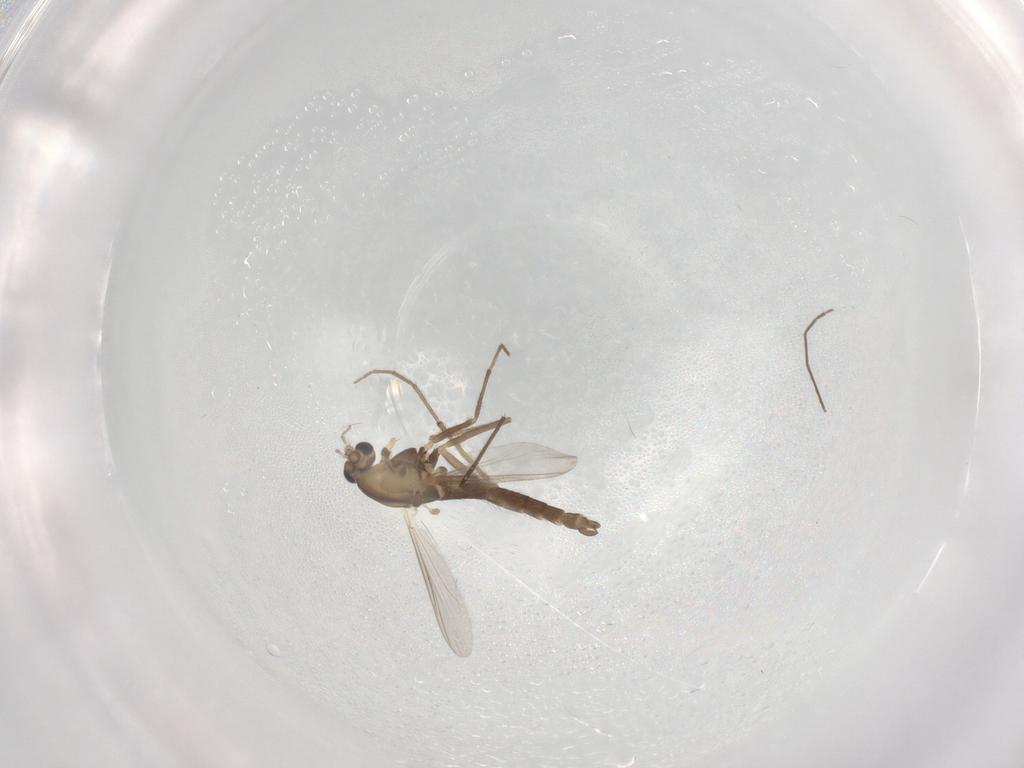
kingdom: Animalia
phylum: Arthropoda
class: Insecta
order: Diptera
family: Chironomidae
